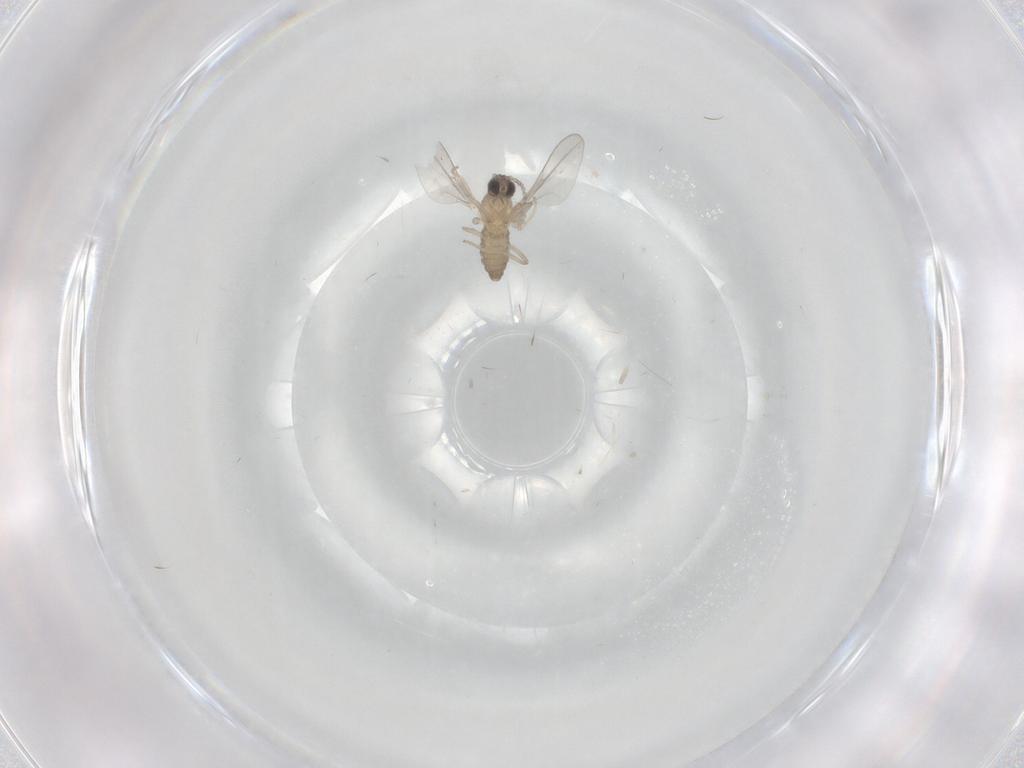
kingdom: Animalia
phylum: Arthropoda
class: Insecta
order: Diptera
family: Cecidomyiidae
